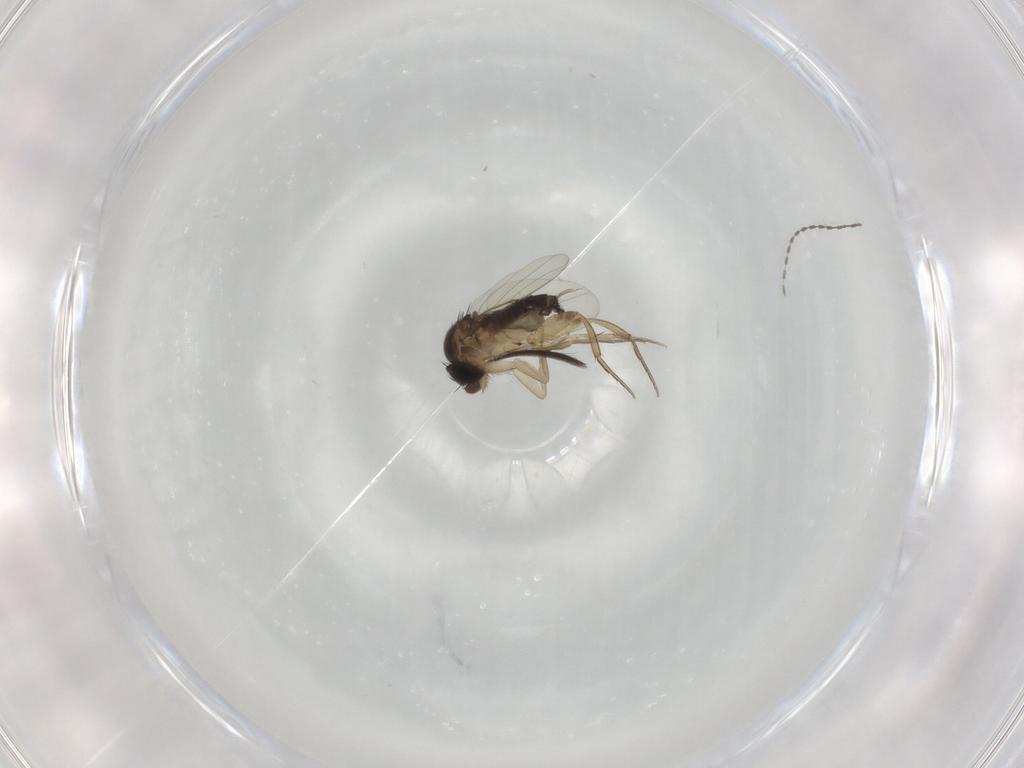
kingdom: Animalia
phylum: Arthropoda
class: Insecta
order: Diptera
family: Phoridae
